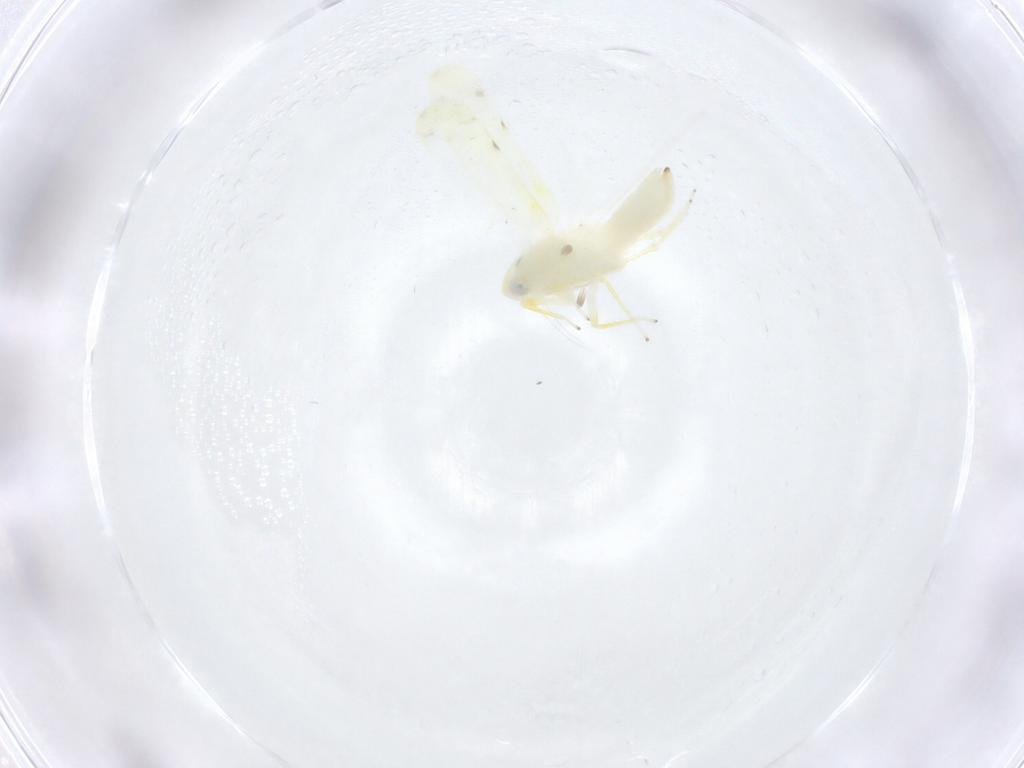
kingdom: Animalia
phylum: Arthropoda
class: Insecta
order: Hemiptera
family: Cicadellidae
